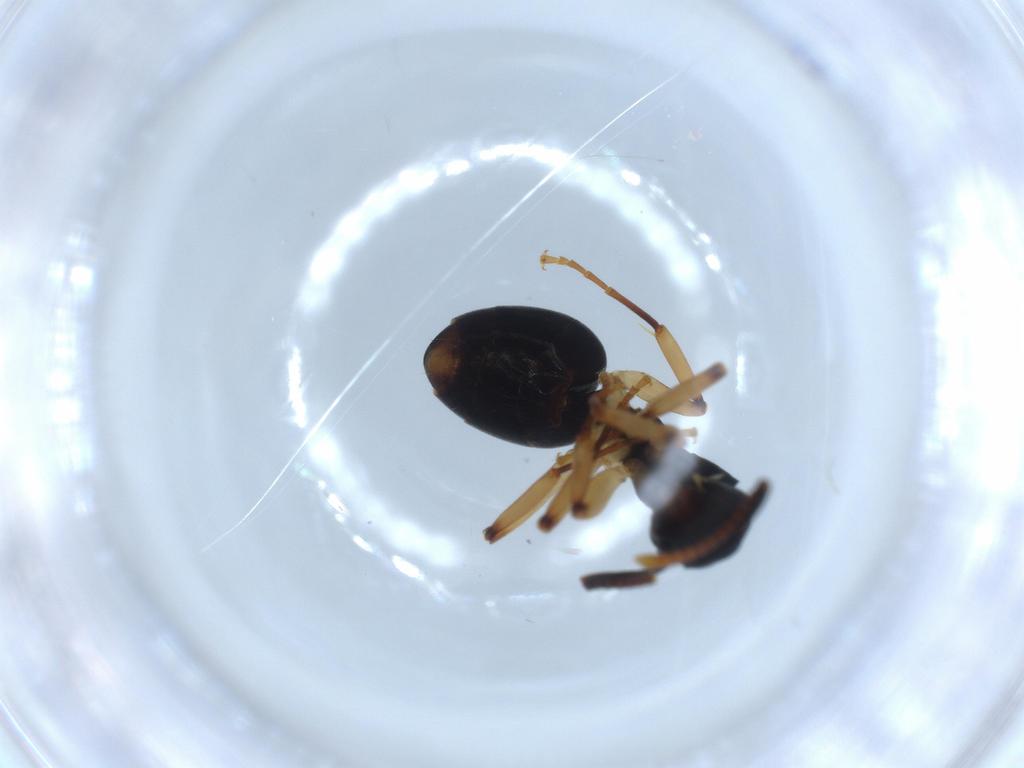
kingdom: Animalia
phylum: Arthropoda
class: Insecta
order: Hymenoptera
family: Formicidae
